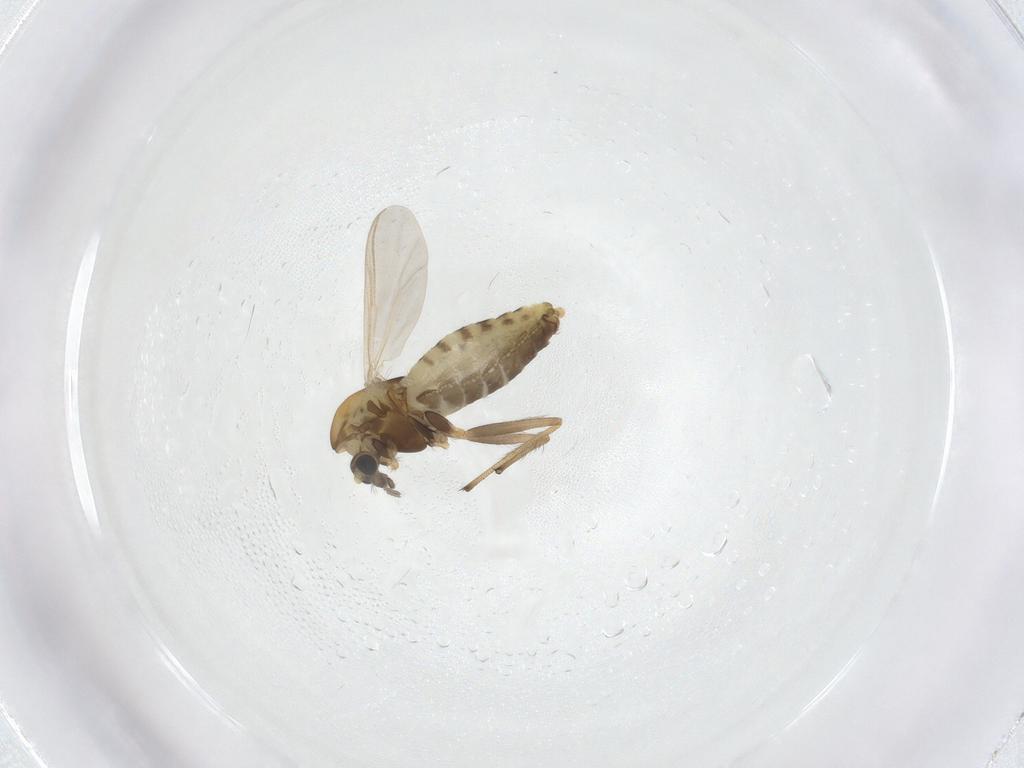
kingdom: Animalia
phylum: Arthropoda
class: Insecta
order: Diptera
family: Chironomidae
